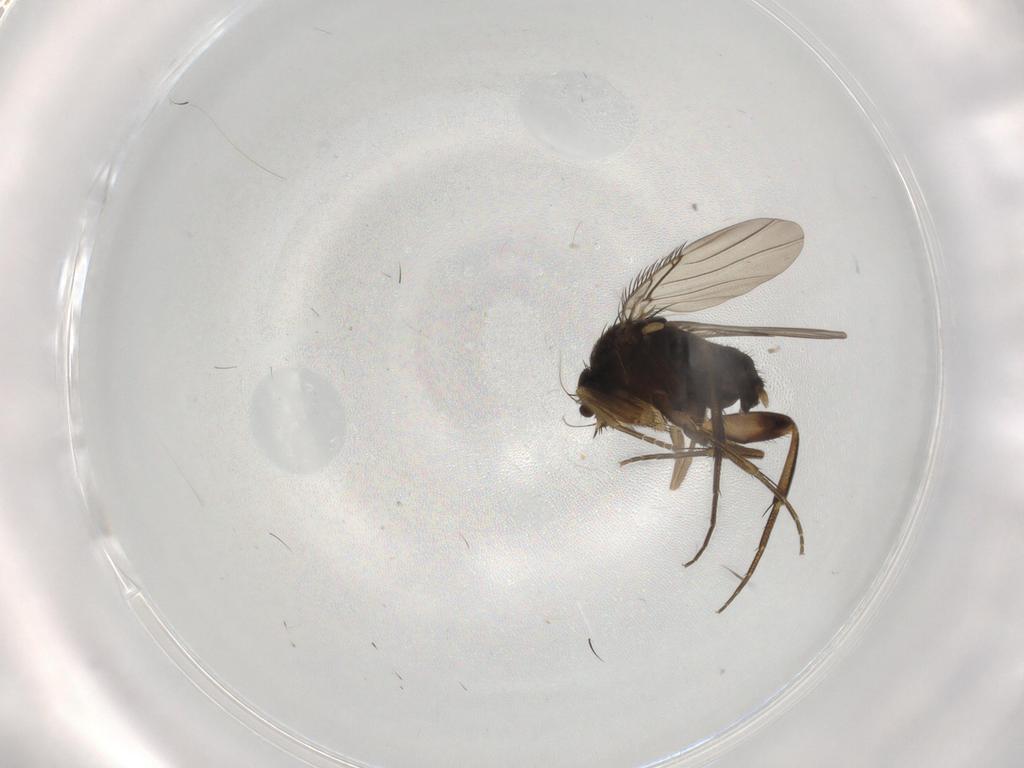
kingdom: Animalia
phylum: Arthropoda
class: Insecta
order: Diptera
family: Phoridae
